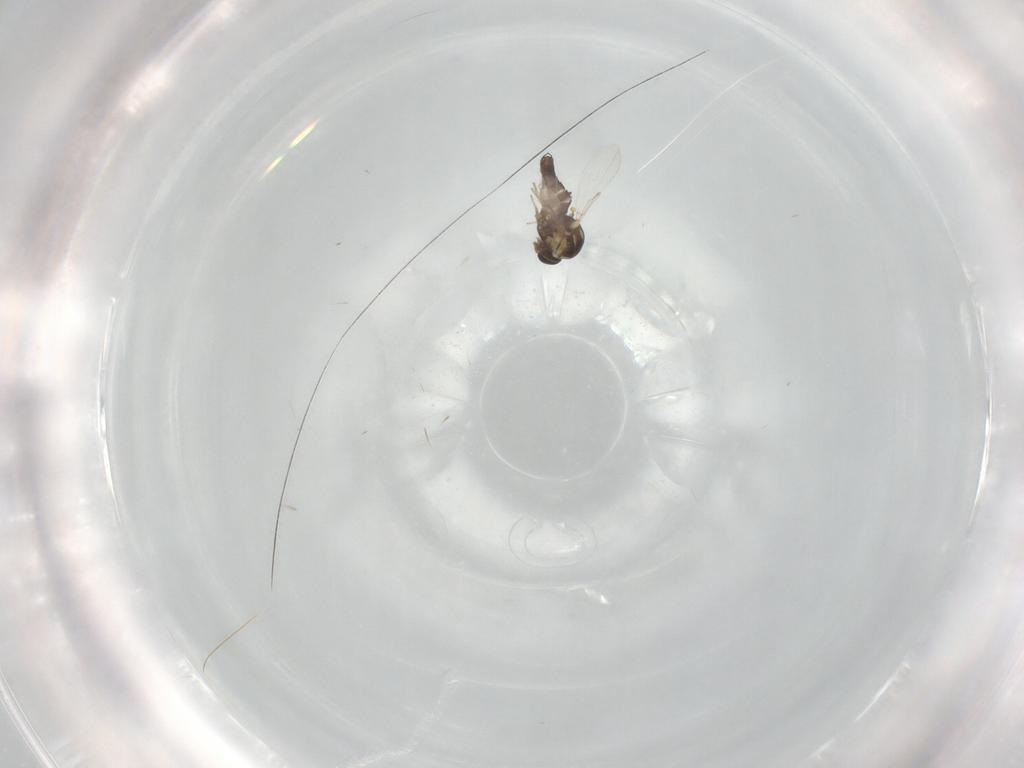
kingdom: Animalia
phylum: Arthropoda
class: Insecta
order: Diptera
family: Ceratopogonidae
